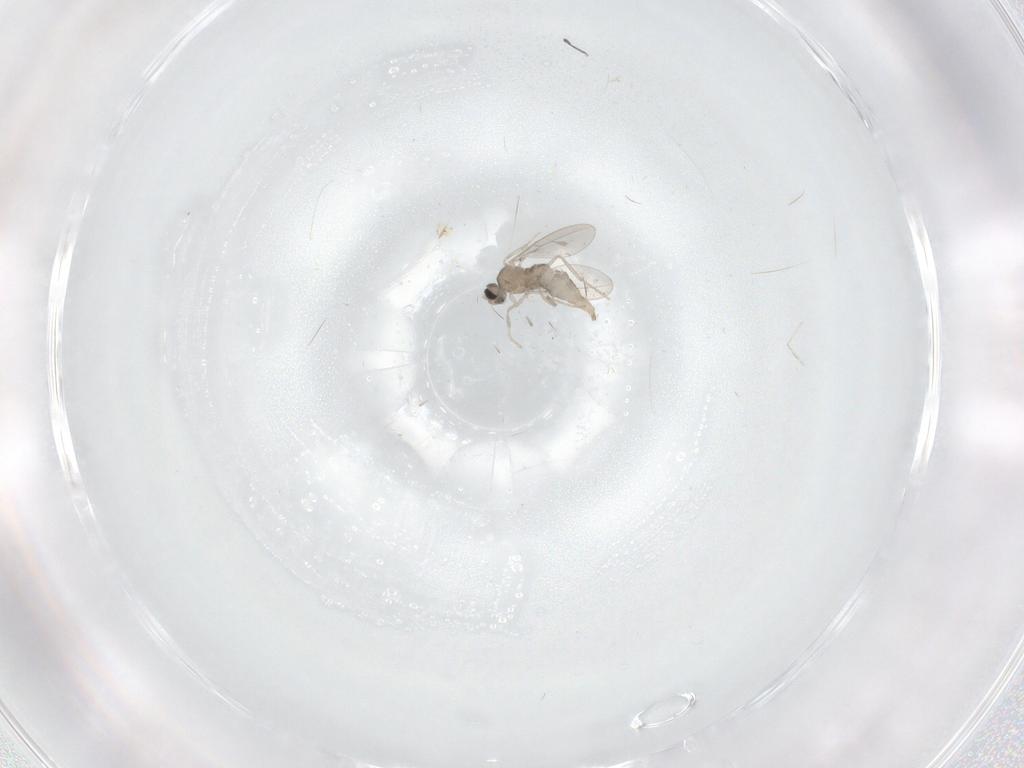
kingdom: Animalia
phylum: Arthropoda
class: Insecta
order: Diptera
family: Cecidomyiidae
